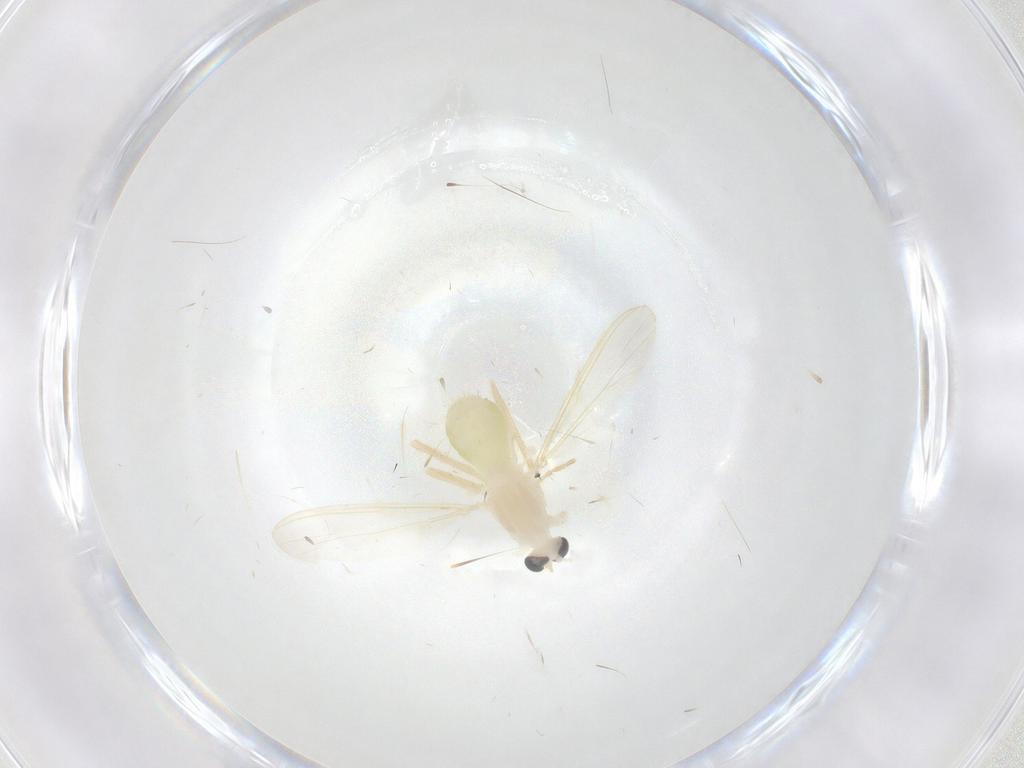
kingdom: Animalia
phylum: Arthropoda
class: Insecta
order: Diptera
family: Chironomidae
